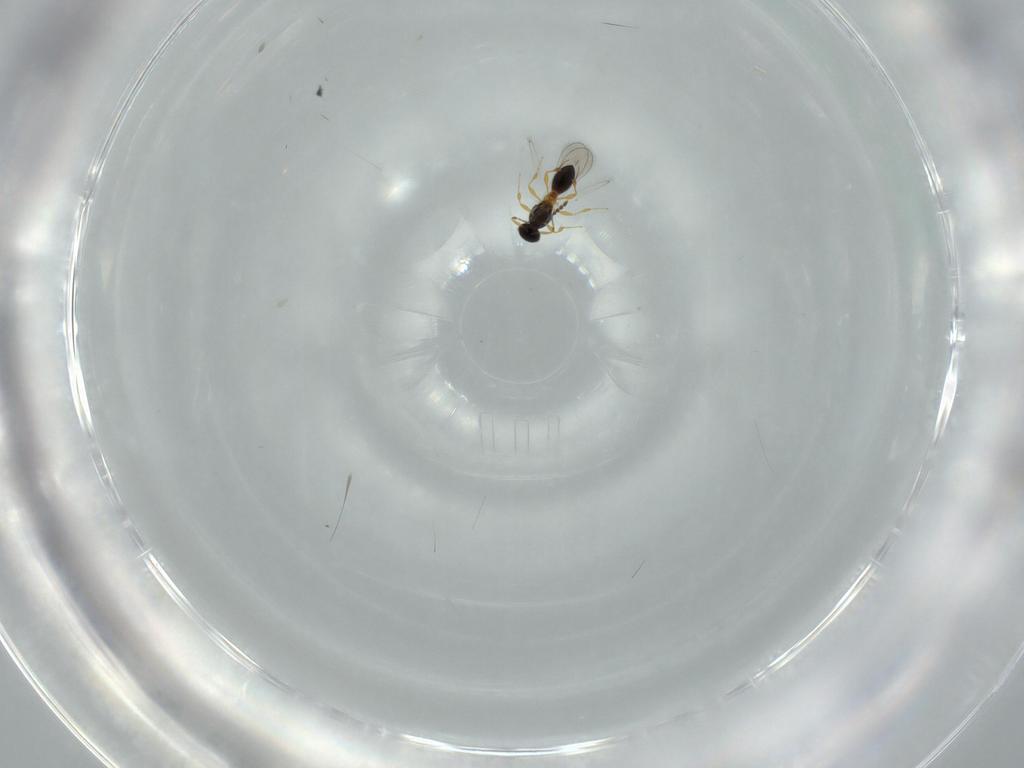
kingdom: Animalia
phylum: Arthropoda
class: Insecta
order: Hymenoptera
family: Platygastridae
